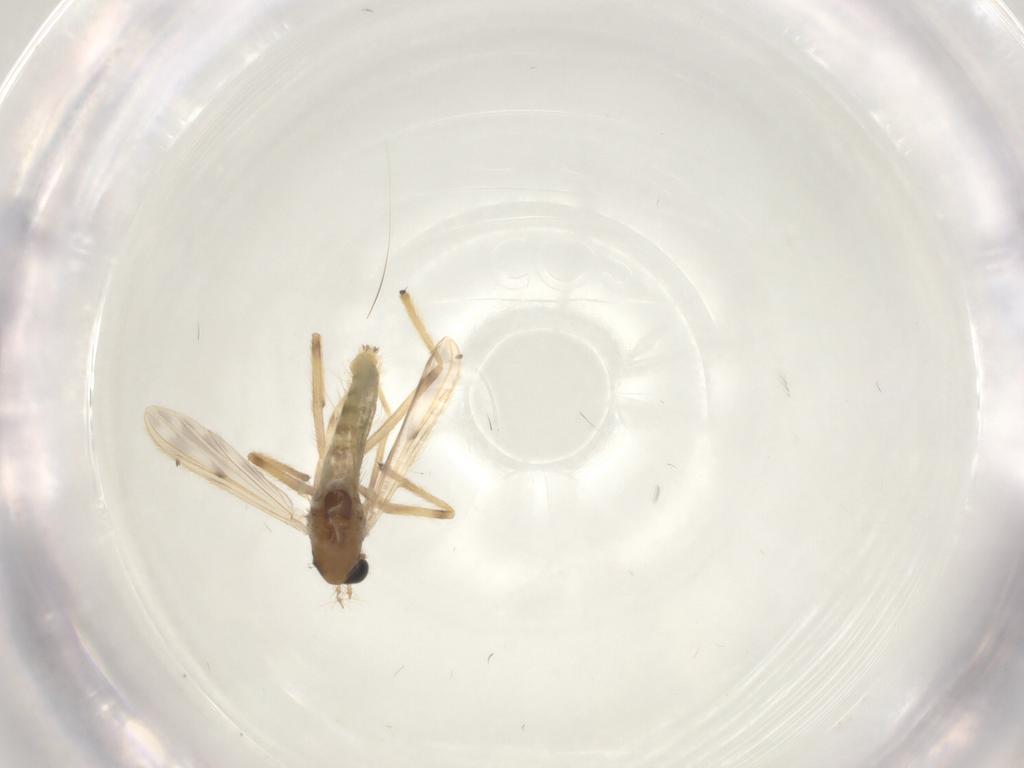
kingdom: Animalia
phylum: Arthropoda
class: Insecta
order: Diptera
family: Chironomidae
